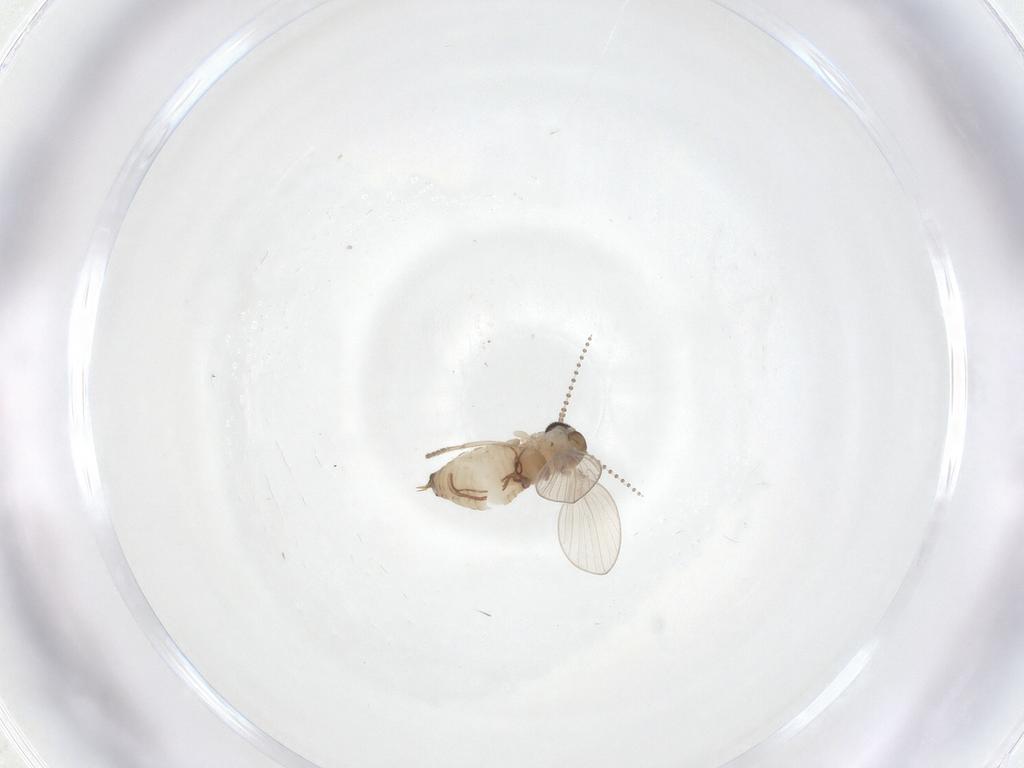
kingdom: Animalia
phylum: Arthropoda
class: Insecta
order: Diptera
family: Psychodidae
